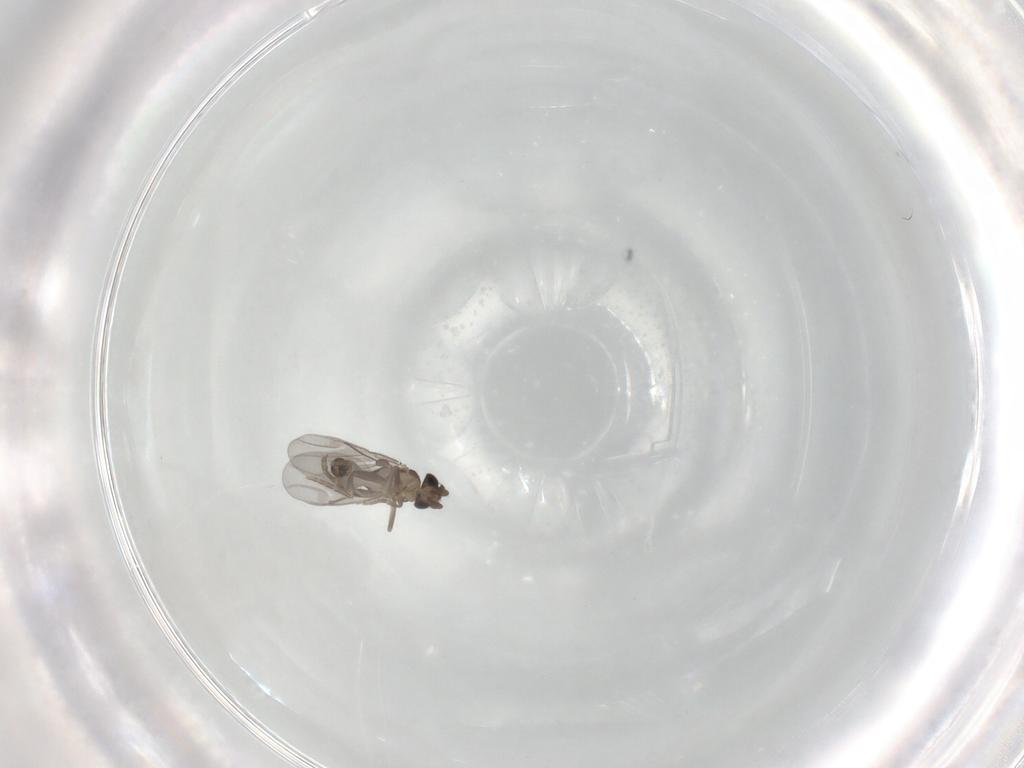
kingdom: Animalia
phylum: Arthropoda
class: Insecta
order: Diptera
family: Psychodidae
